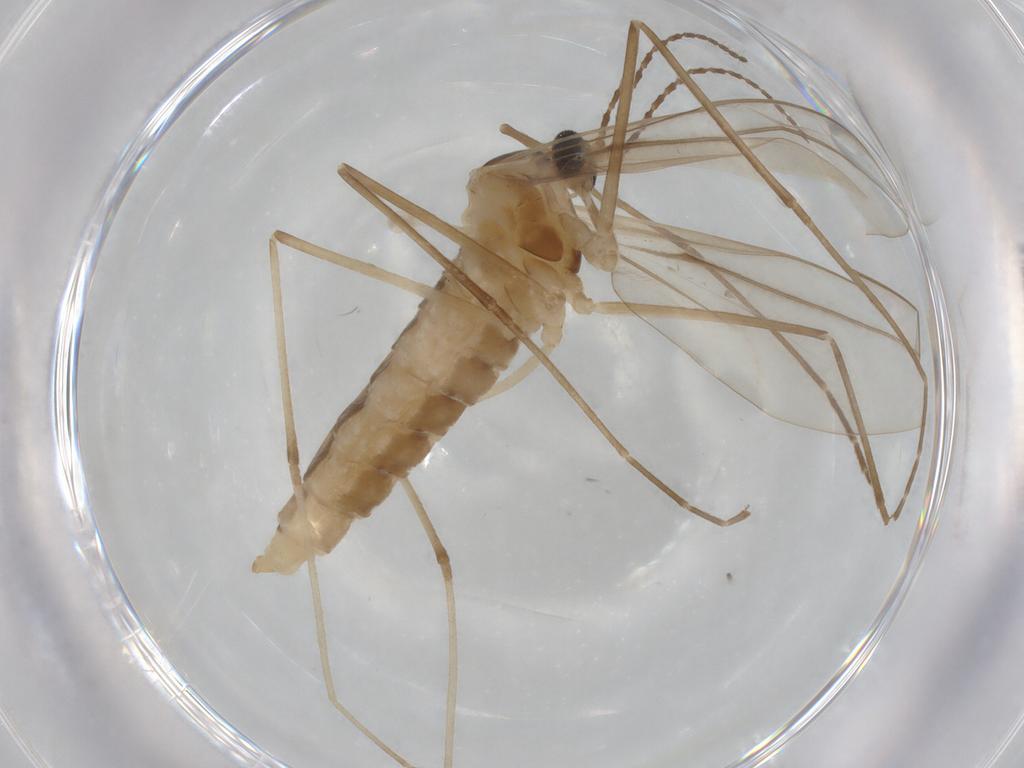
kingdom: Animalia
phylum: Arthropoda
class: Insecta
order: Diptera
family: Cecidomyiidae
